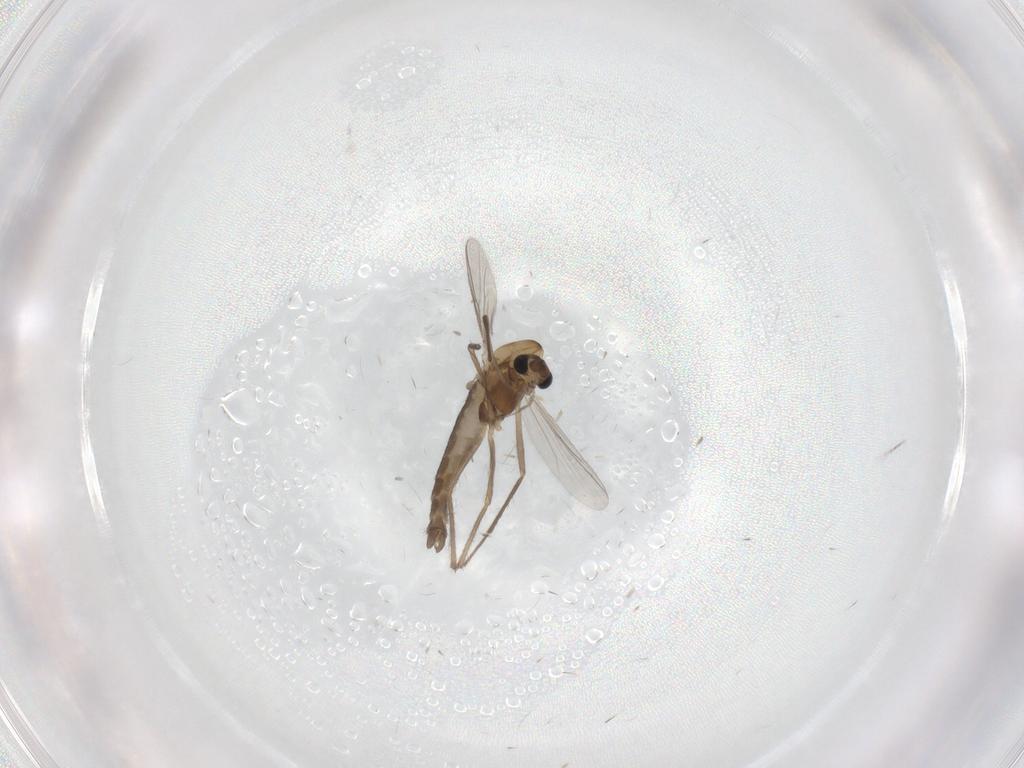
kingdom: Animalia
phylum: Arthropoda
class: Insecta
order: Diptera
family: Chironomidae
